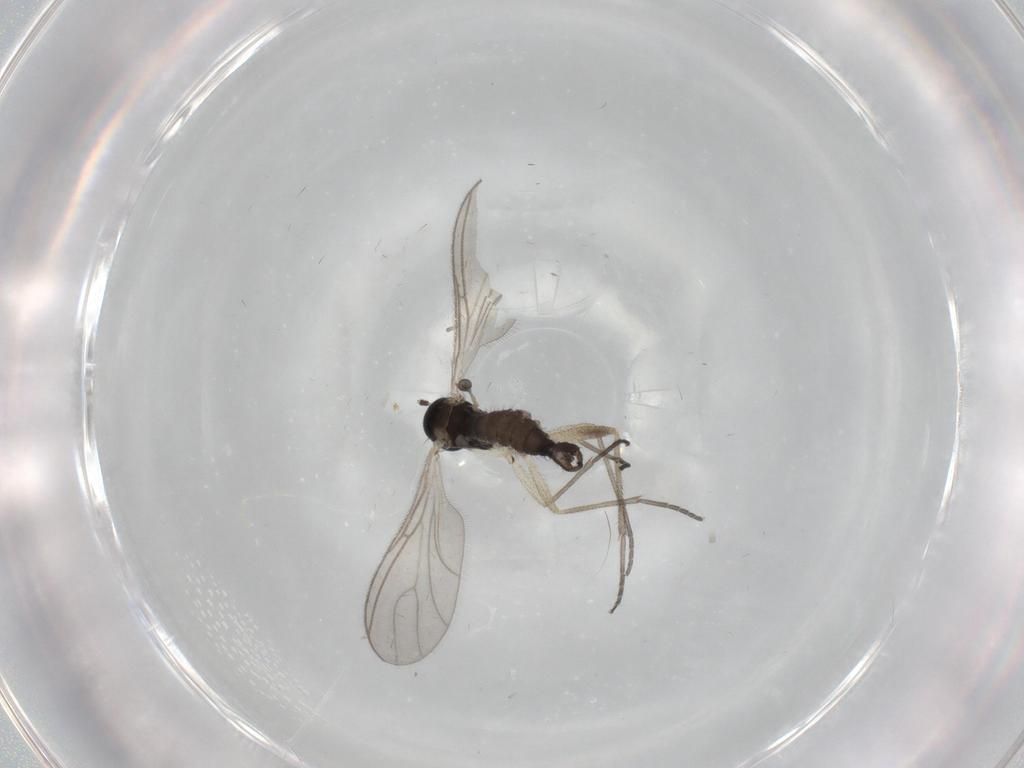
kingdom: Animalia
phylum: Arthropoda
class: Insecta
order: Diptera
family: Sciaridae
